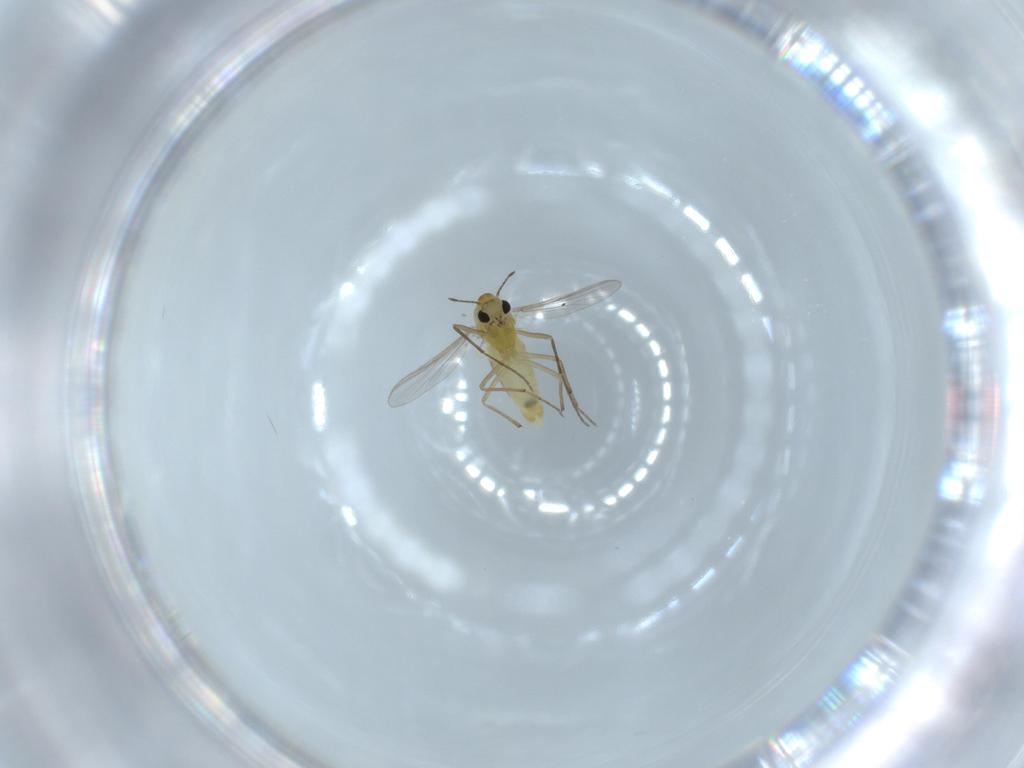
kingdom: Animalia
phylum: Arthropoda
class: Insecta
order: Diptera
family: Chironomidae
